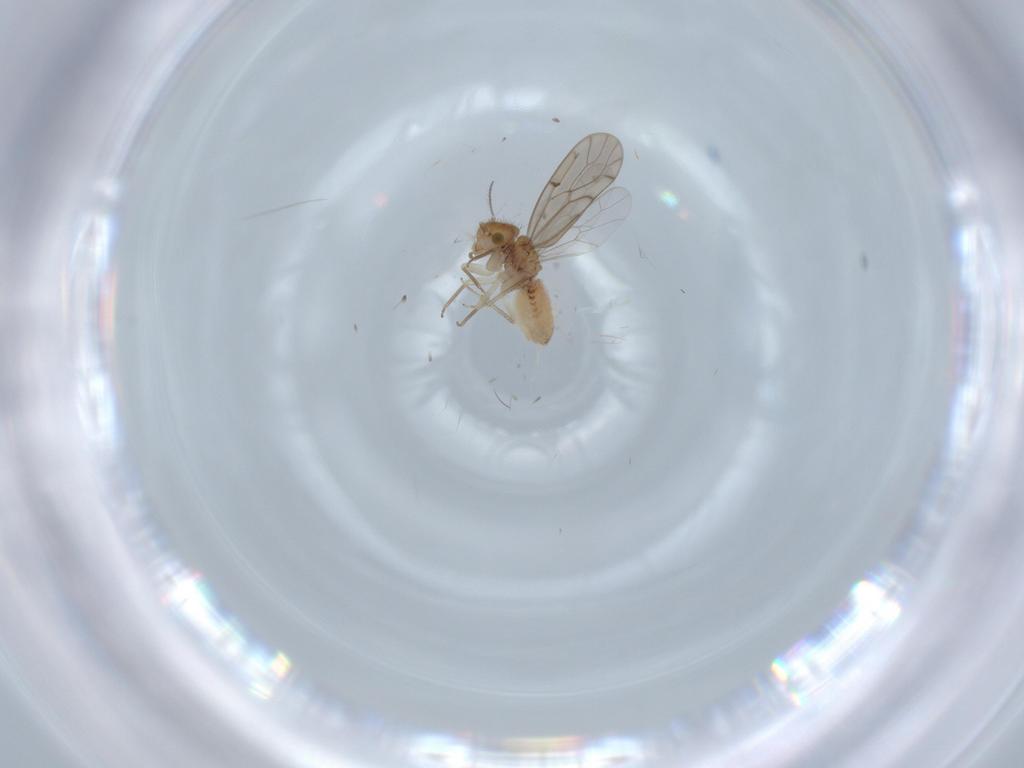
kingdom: Animalia
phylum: Arthropoda
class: Insecta
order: Psocodea
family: Ectopsocidae
